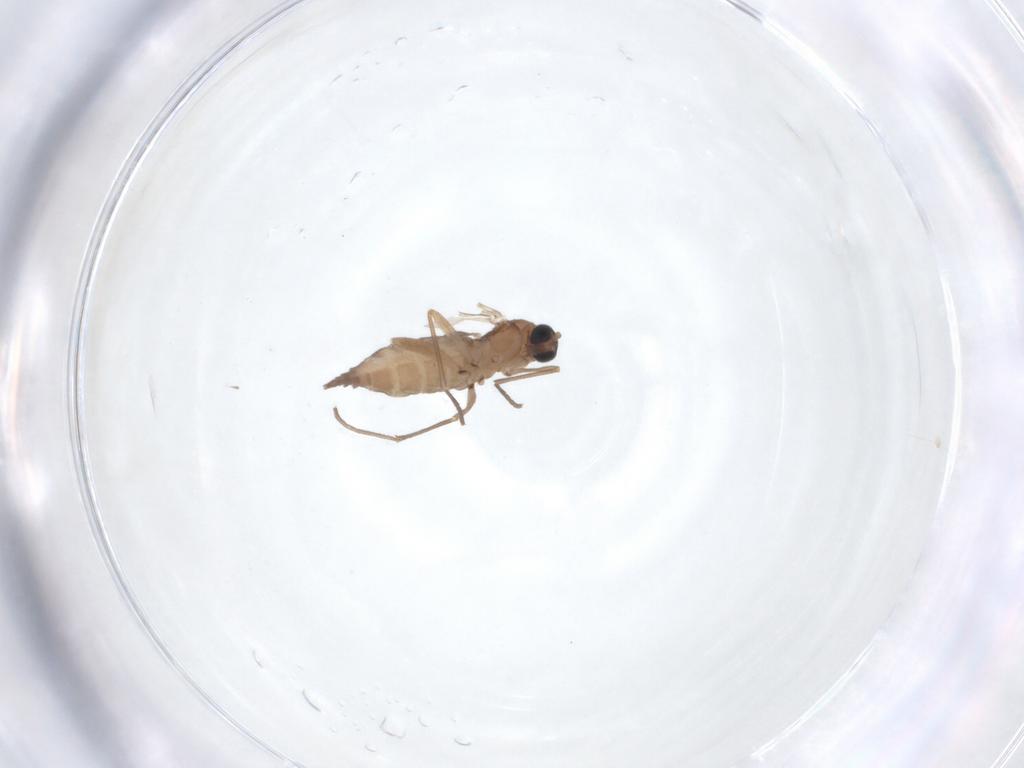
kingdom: Animalia
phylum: Arthropoda
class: Insecta
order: Diptera
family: Sciaridae
